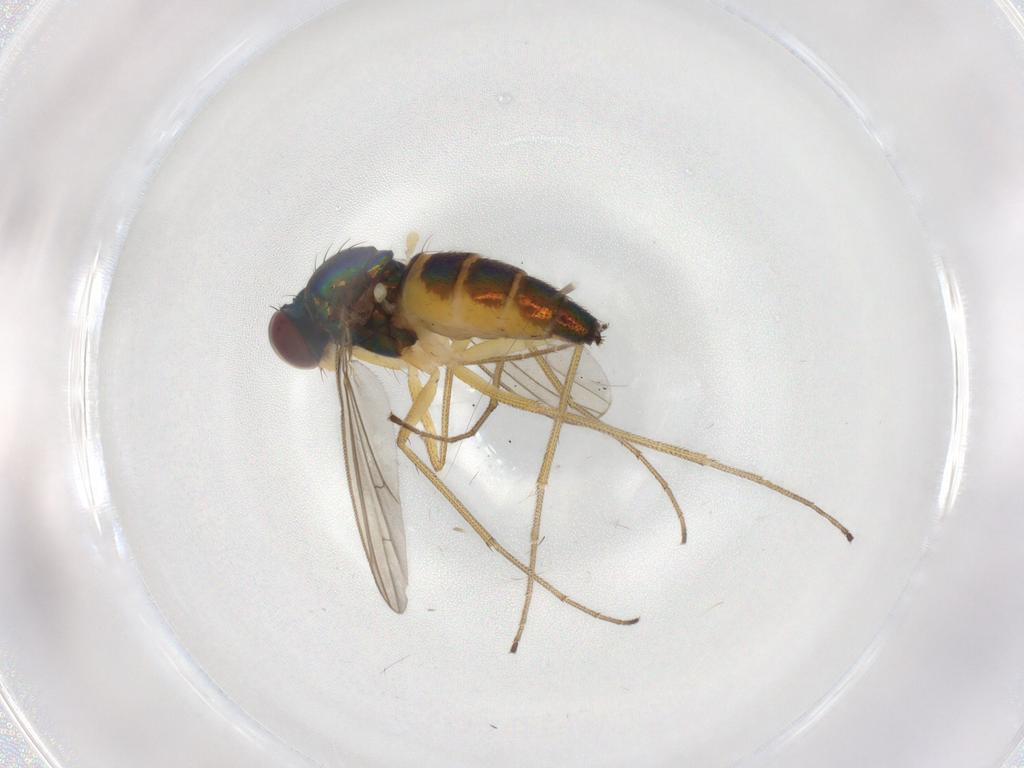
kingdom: Animalia
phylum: Arthropoda
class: Insecta
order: Diptera
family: Dolichopodidae
